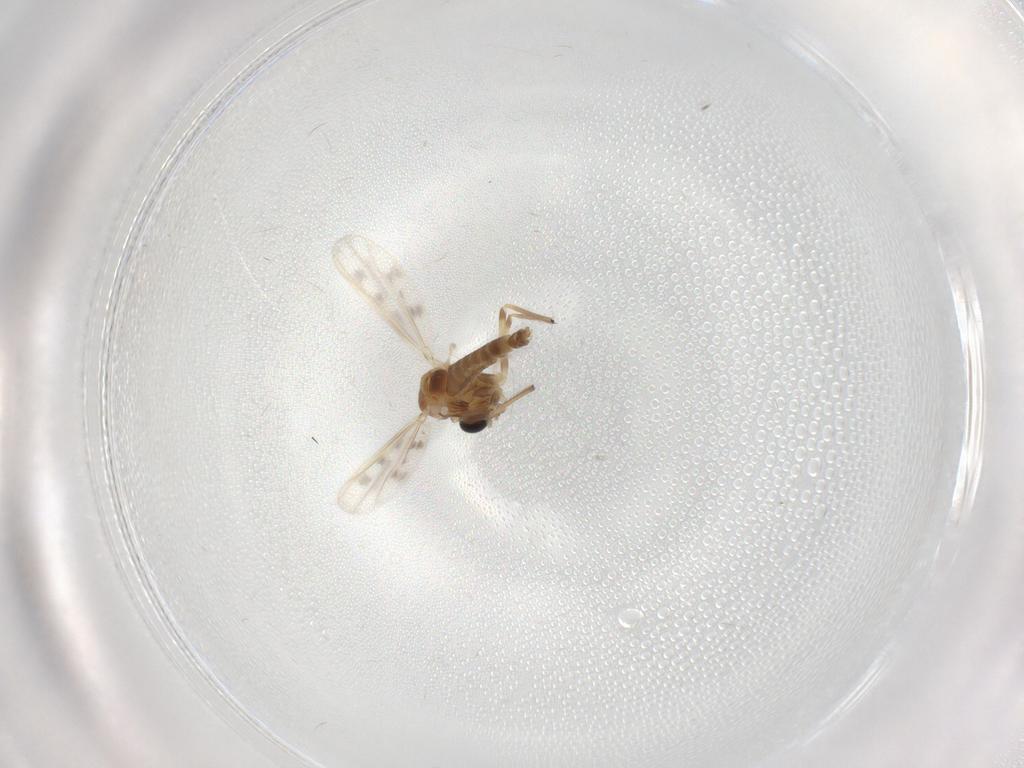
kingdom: Animalia
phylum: Arthropoda
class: Insecta
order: Diptera
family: Chironomidae
